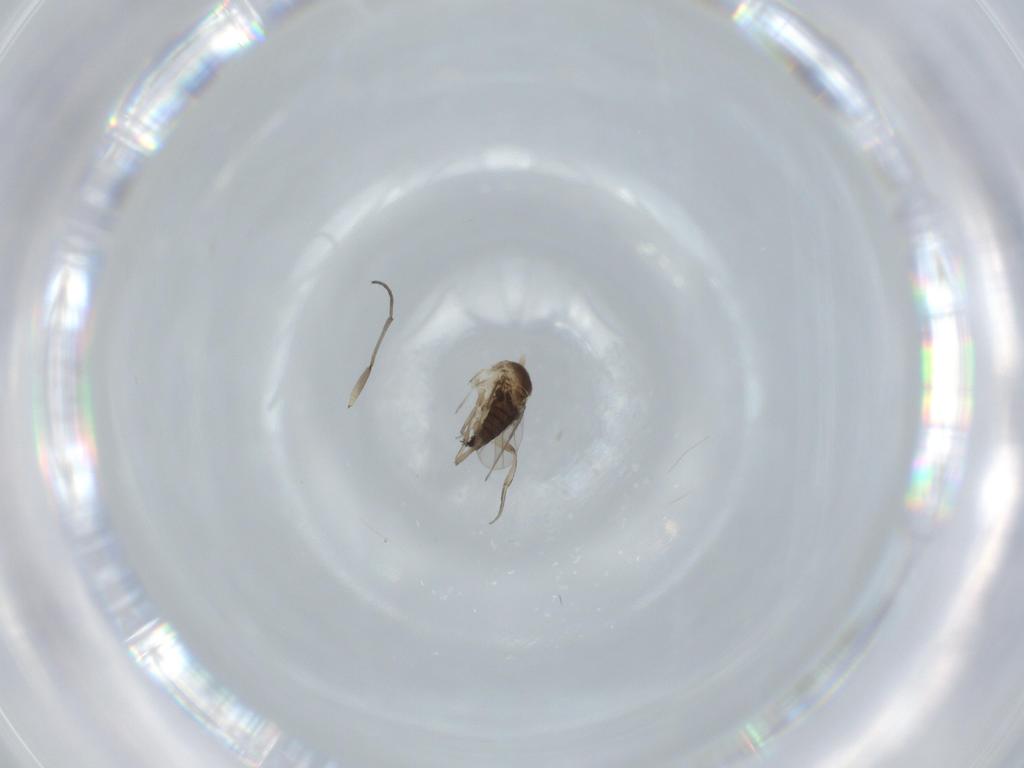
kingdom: Animalia
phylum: Arthropoda
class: Insecta
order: Diptera
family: Phoridae
